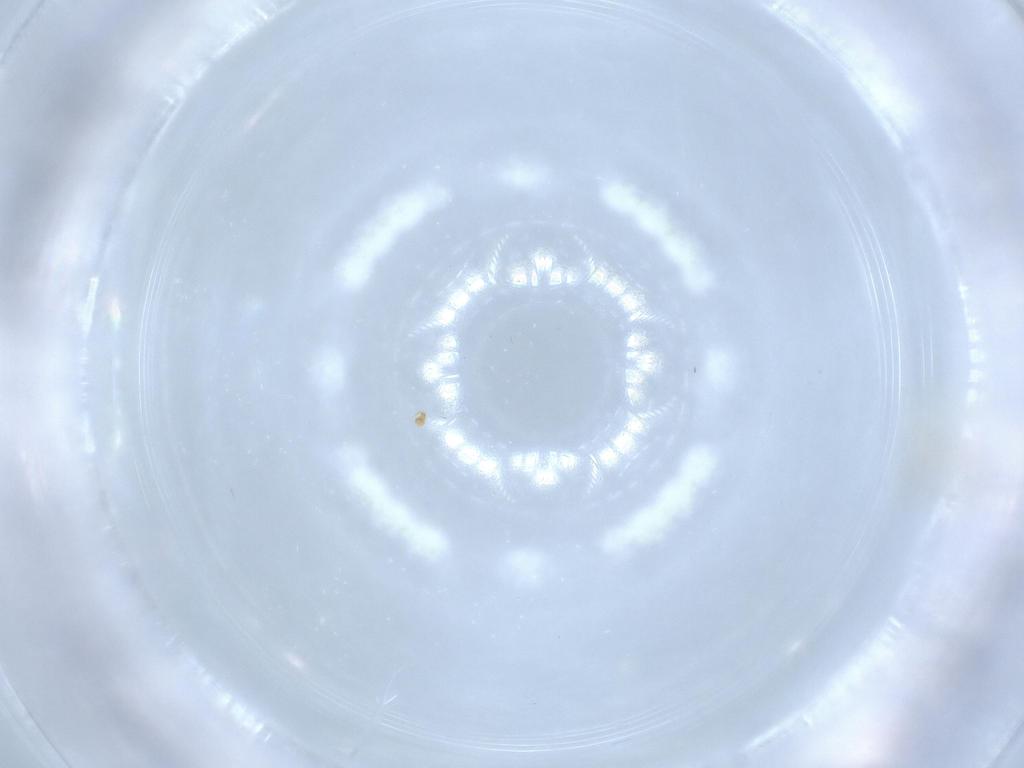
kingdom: Animalia
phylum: Arthropoda
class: Insecta
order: Diptera
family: Cecidomyiidae
